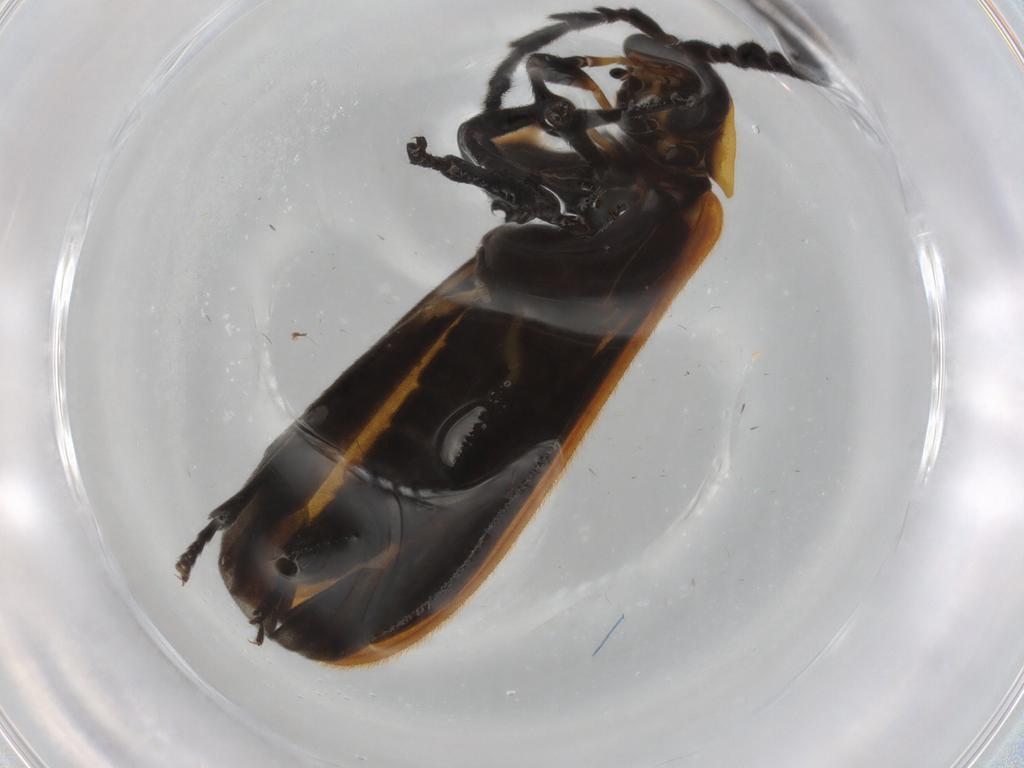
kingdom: Animalia
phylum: Arthropoda
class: Insecta
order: Coleoptera
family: Lycidae
